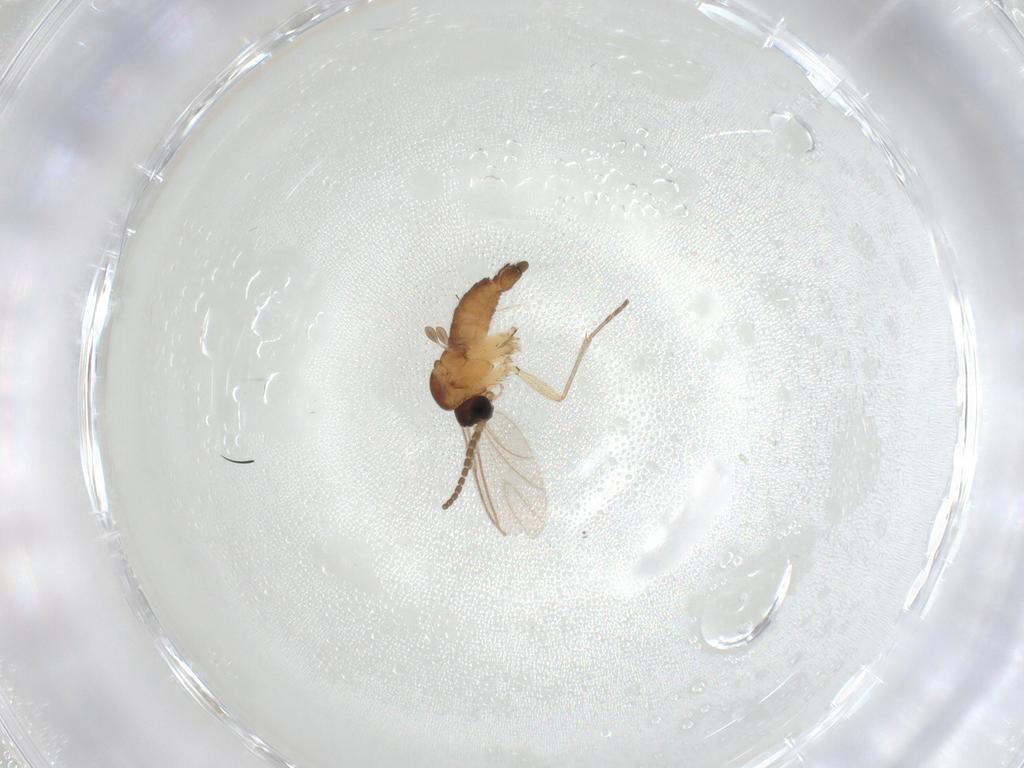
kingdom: Animalia
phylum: Arthropoda
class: Insecta
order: Diptera
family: Sciaridae
